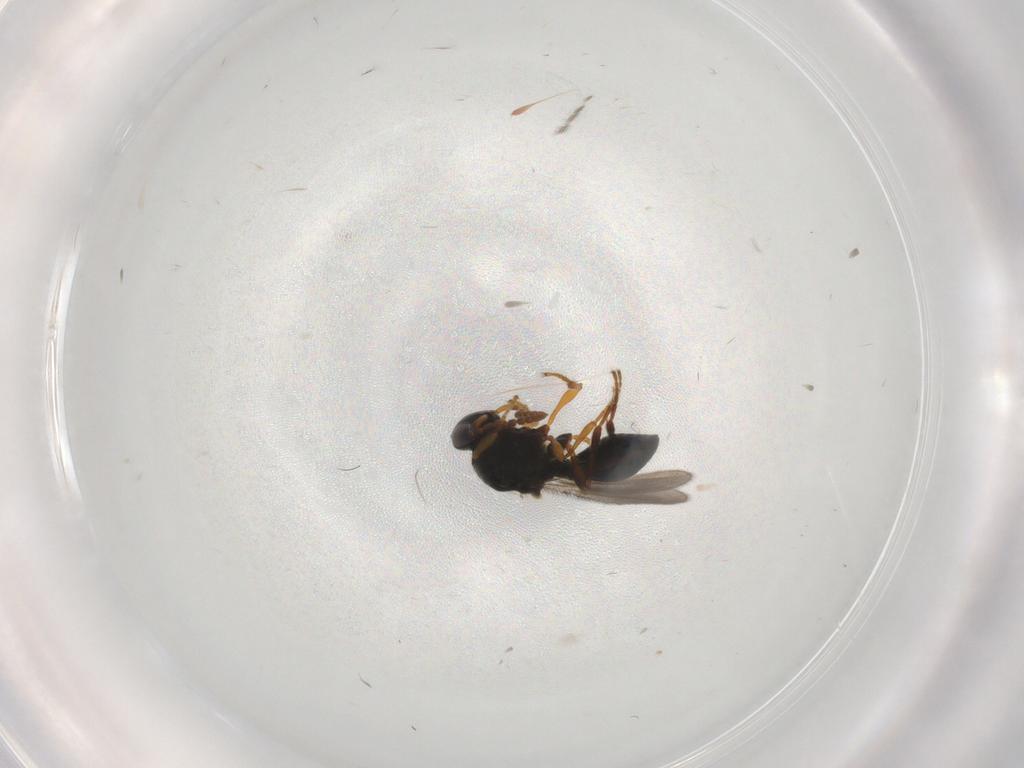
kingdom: Animalia
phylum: Arthropoda
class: Insecta
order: Hymenoptera
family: Platygastridae
